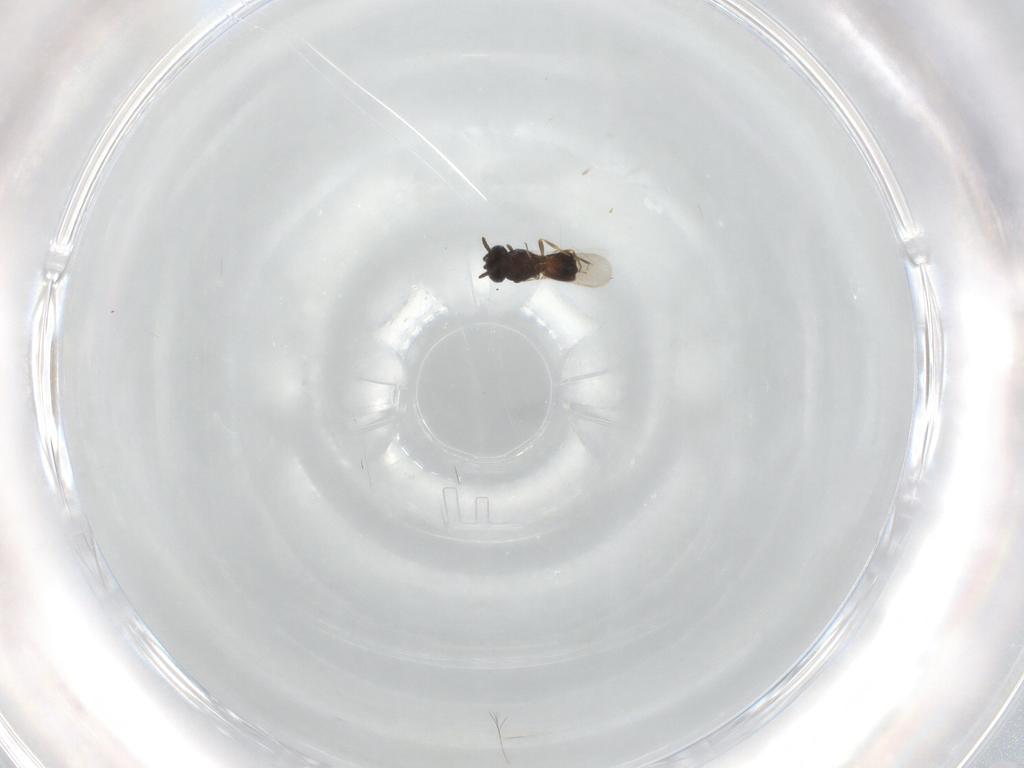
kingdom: Animalia
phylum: Arthropoda
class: Insecta
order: Hymenoptera
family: Scelionidae
